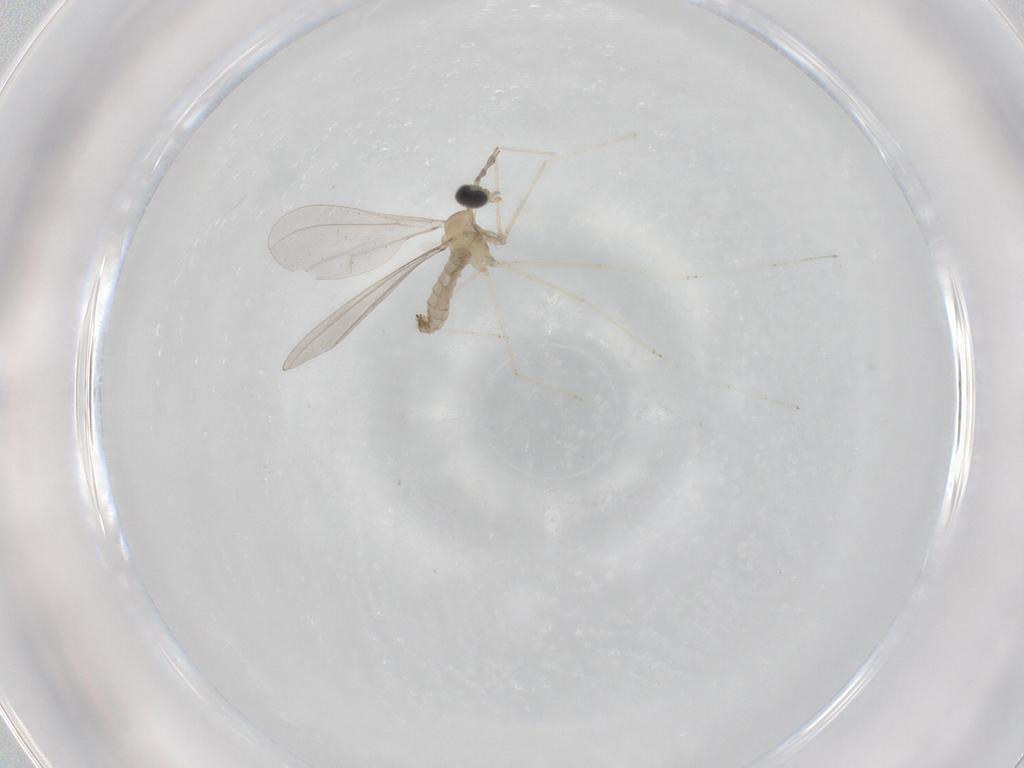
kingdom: Animalia
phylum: Arthropoda
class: Insecta
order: Diptera
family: Cecidomyiidae
